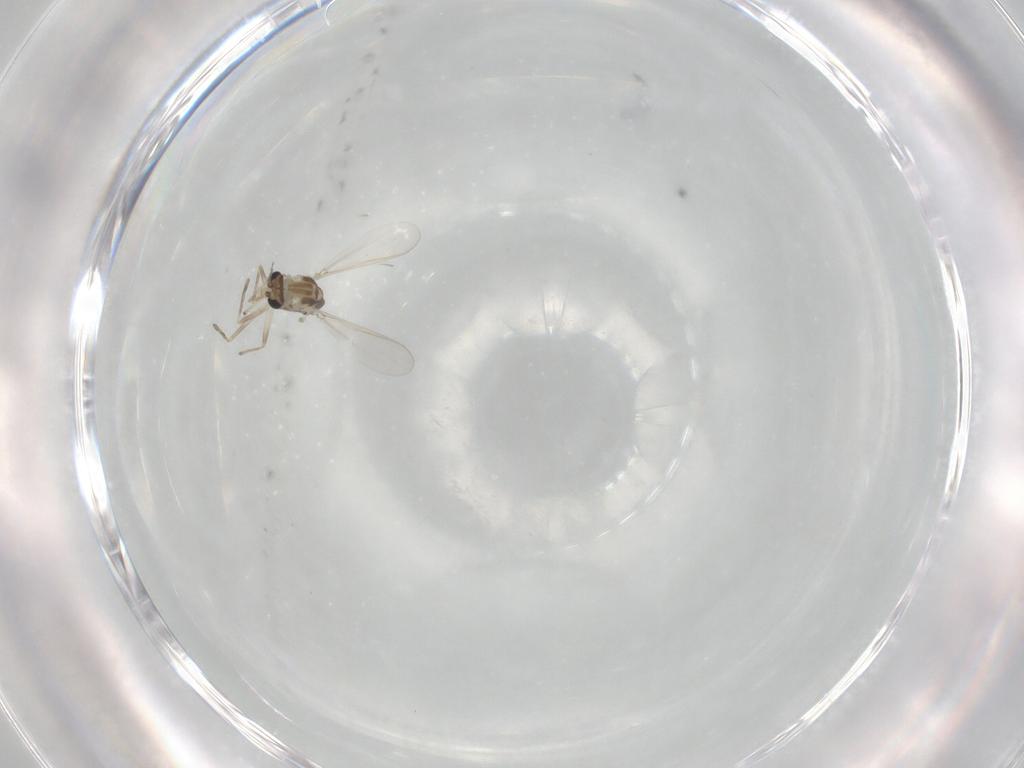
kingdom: Animalia
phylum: Arthropoda
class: Insecta
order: Diptera
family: Chironomidae
